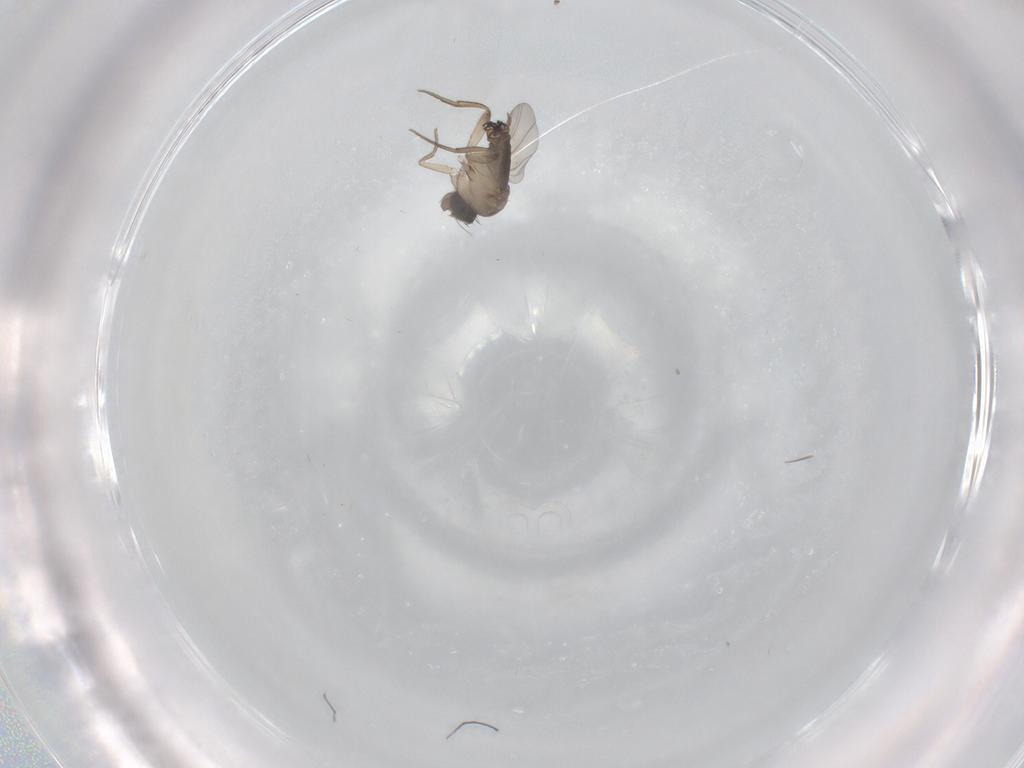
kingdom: Animalia
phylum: Arthropoda
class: Insecta
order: Diptera
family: Phoridae
